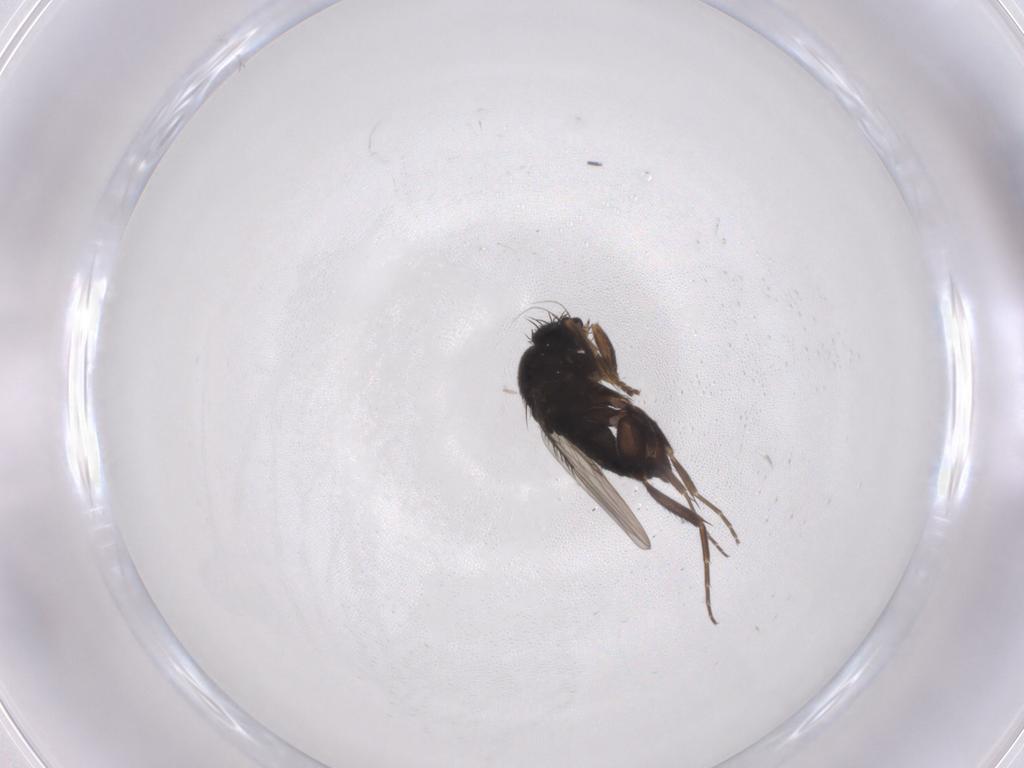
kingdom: Animalia
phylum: Arthropoda
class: Insecta
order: Diptera
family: Phoridae
